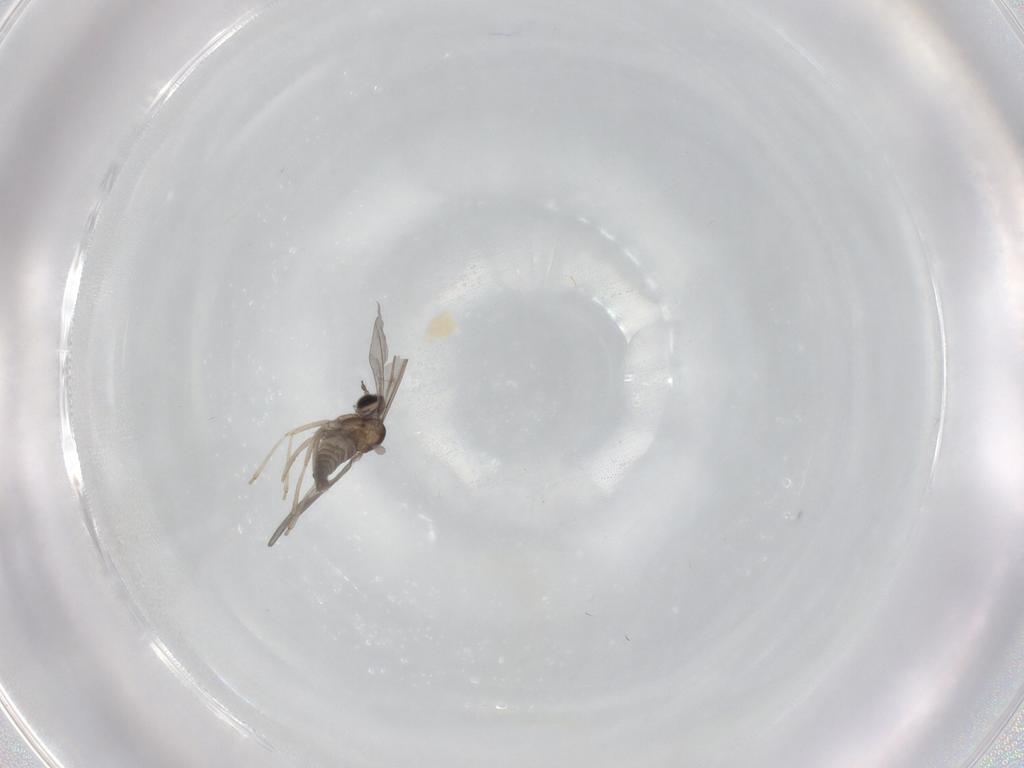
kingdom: Animalia
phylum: Arthropoda
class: Insecta
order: Diptera
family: Cecidomyiidae
